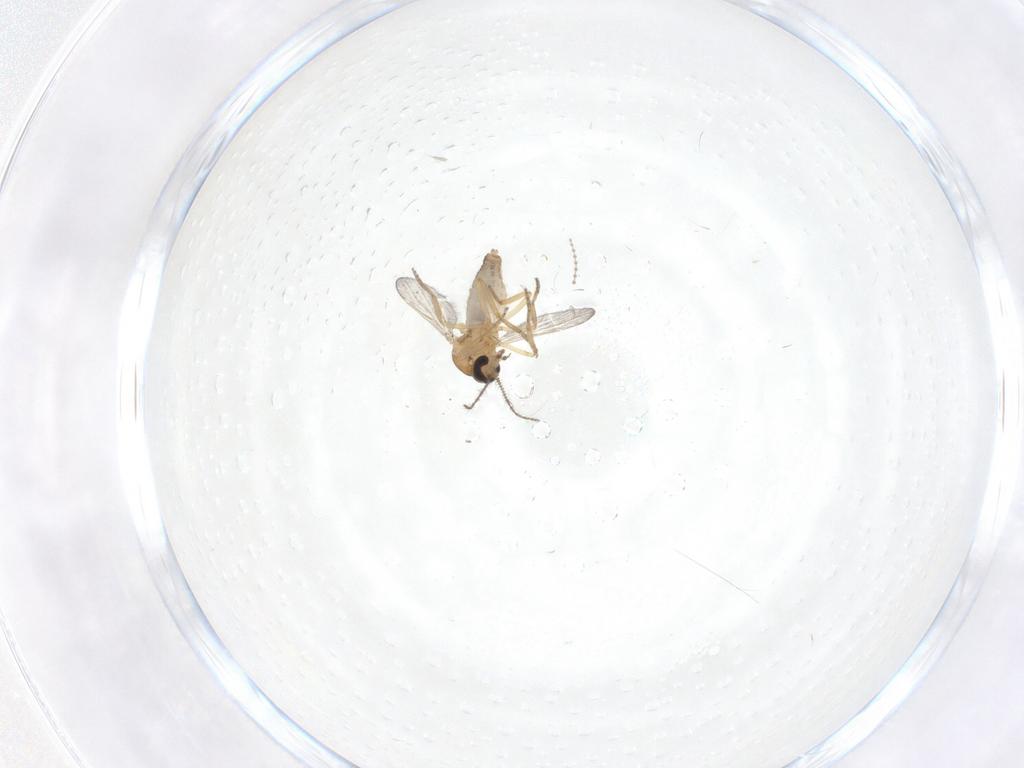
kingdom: Animalia
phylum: Arthropoda
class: Insecta
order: Diptera
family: Ceratopogonidae
